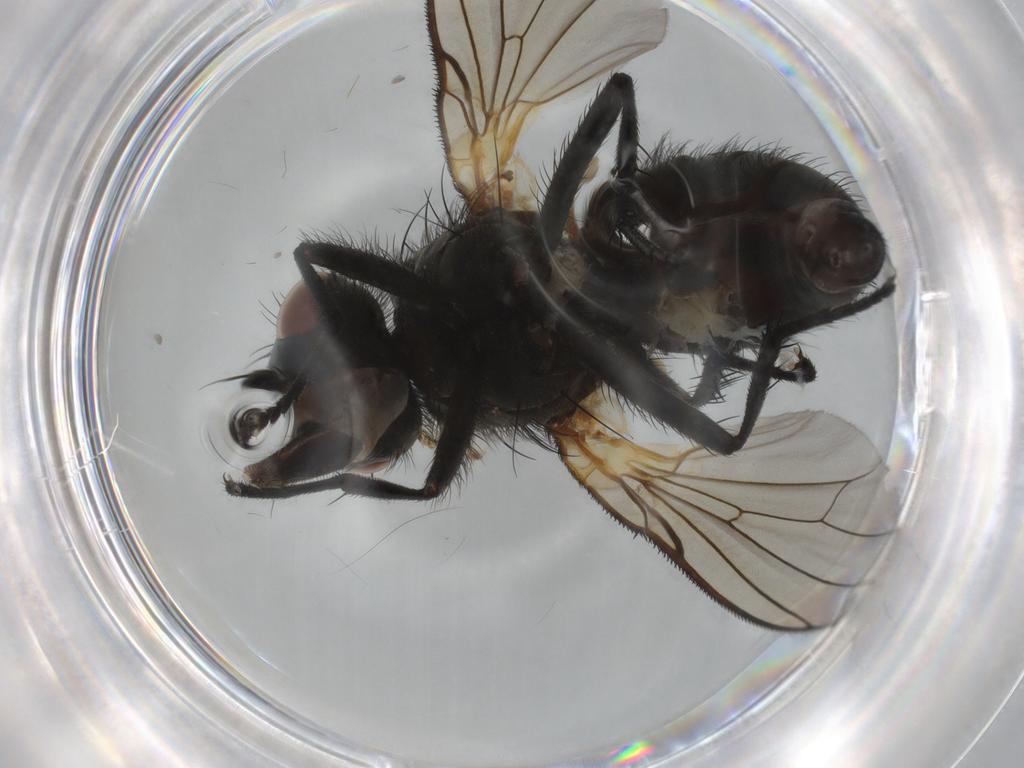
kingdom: Animalia
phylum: Arthropoda
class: Insecta
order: Diptera
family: Anthomyiidae
